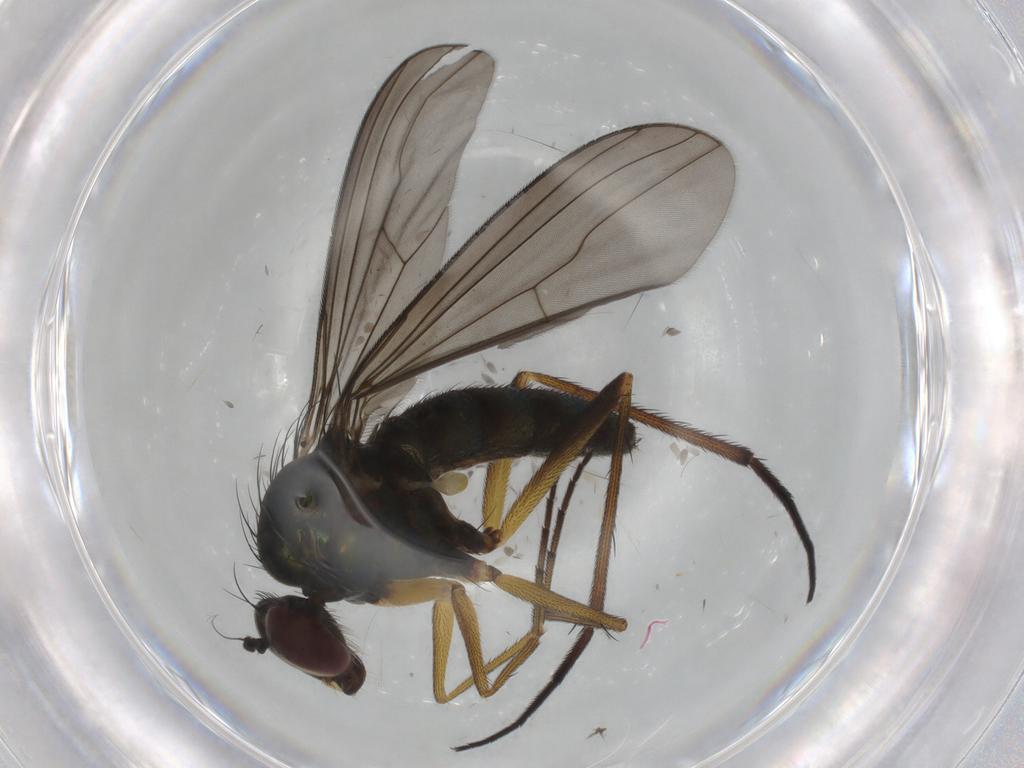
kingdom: Animalia
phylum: Arthropoda
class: Insecta
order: Diptera
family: Dolichopodidae
